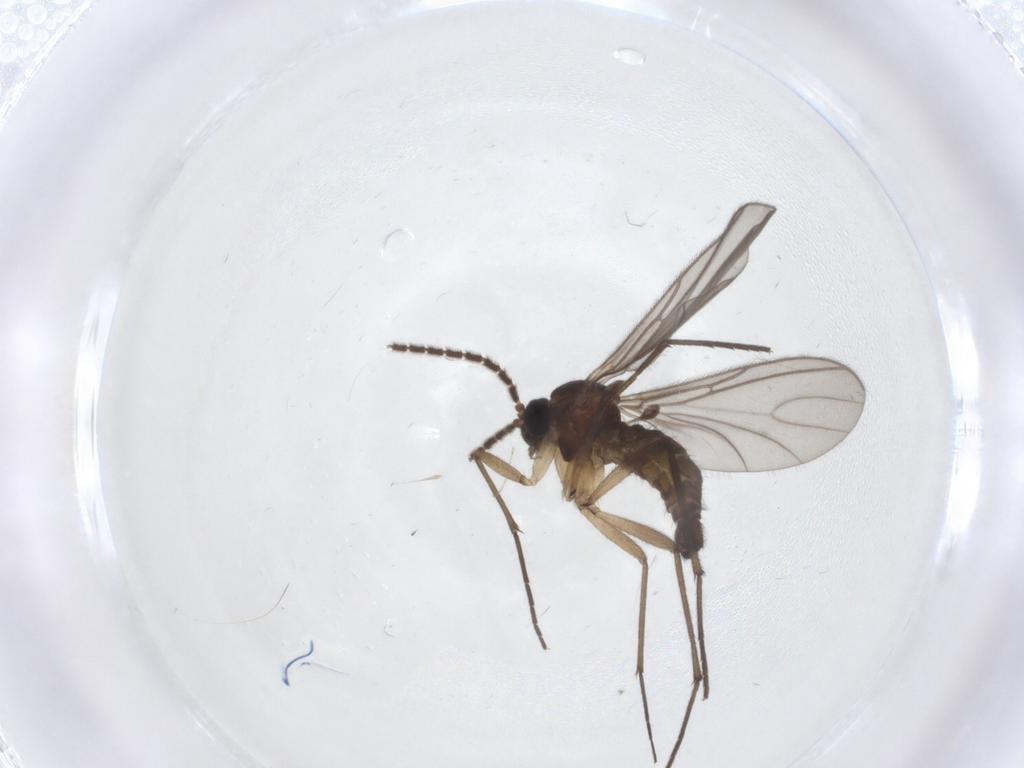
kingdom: Animalia
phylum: Arthropoda
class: Insecta
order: Diptera
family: Sciaridae
